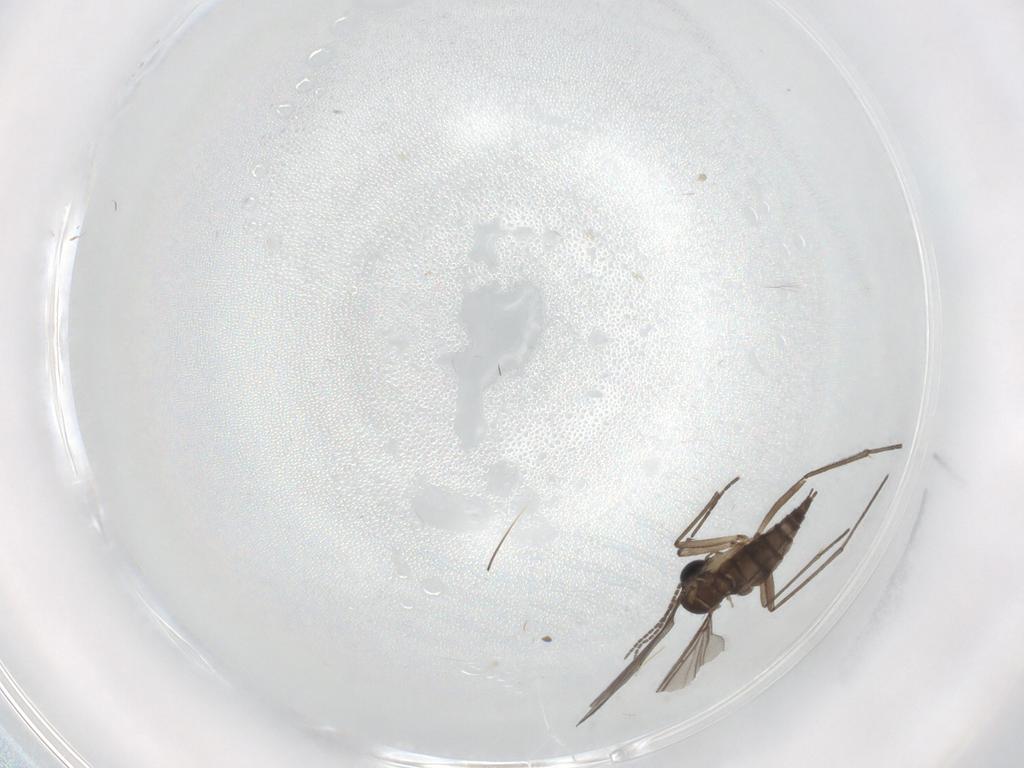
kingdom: Animalia
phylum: Arthropoda
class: Insecta
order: Diptera
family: Sciaridae
